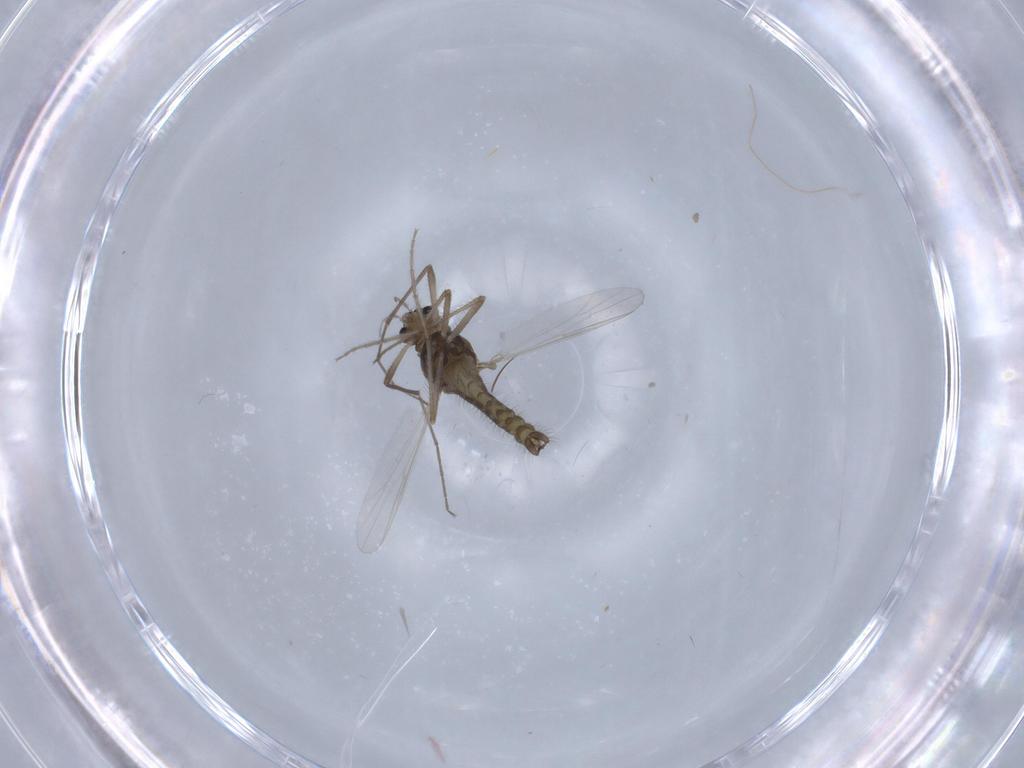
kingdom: Animalia
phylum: Arthropoda
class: Insecta
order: Diptera
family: Chironomidae
